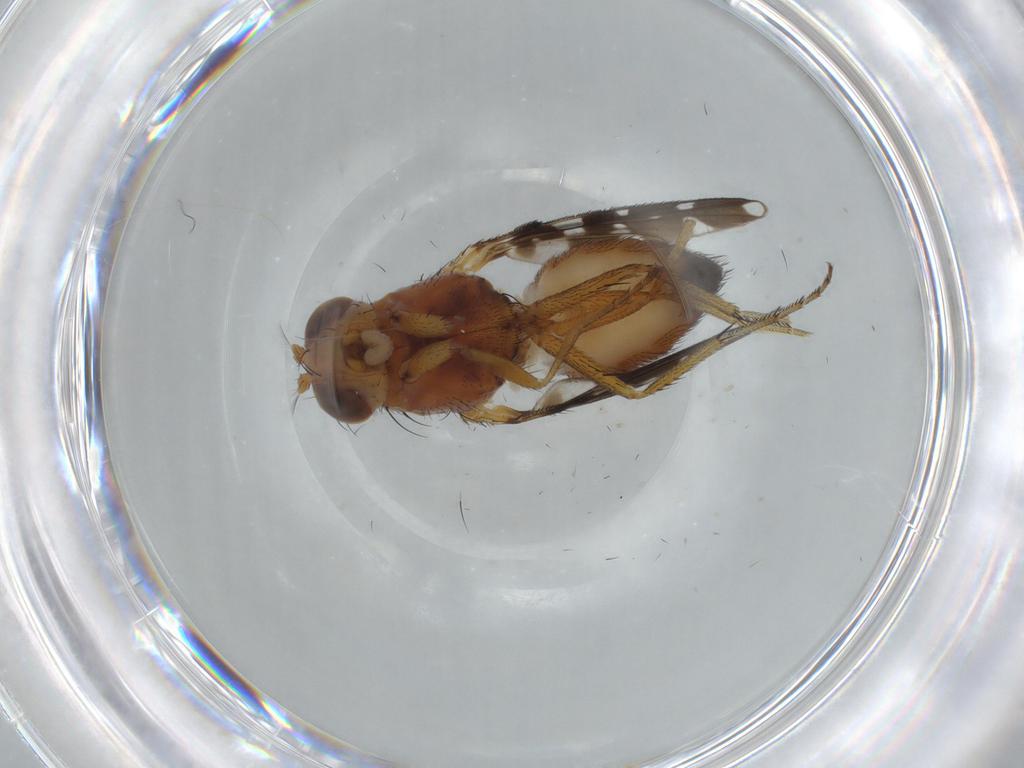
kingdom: Animalia
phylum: Arthropoda
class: Insecta
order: Diptera
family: Ephydridae
